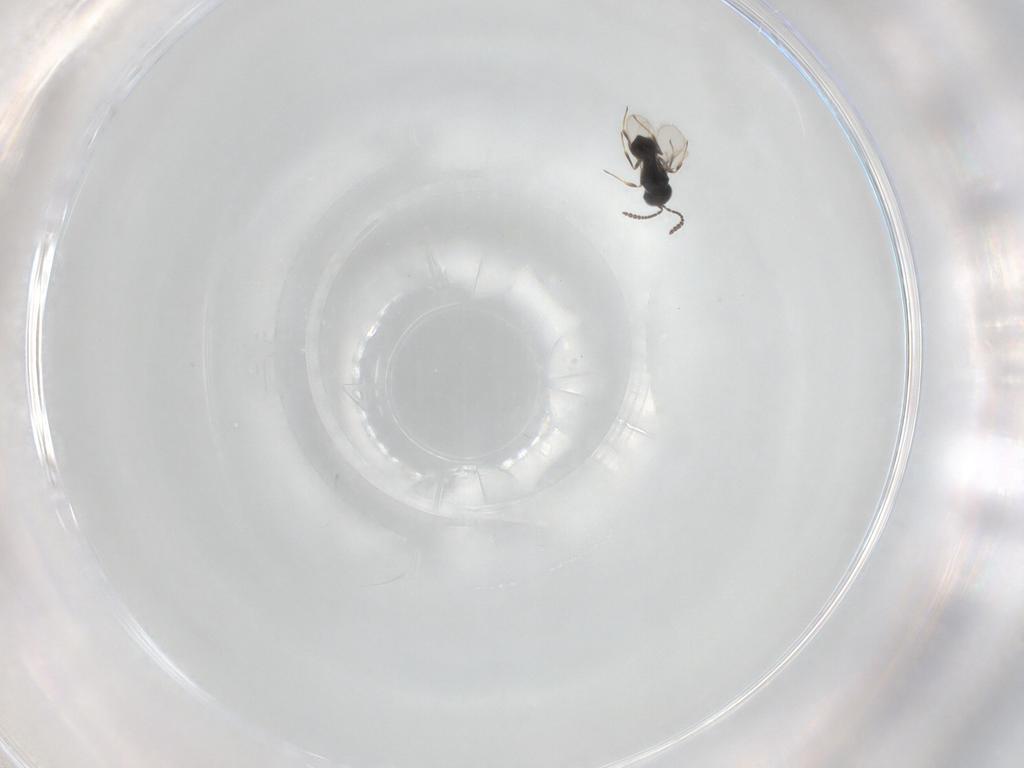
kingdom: Animalia
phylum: Arthropoda
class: Insecta
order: Hymenoptera
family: Scelionidae
